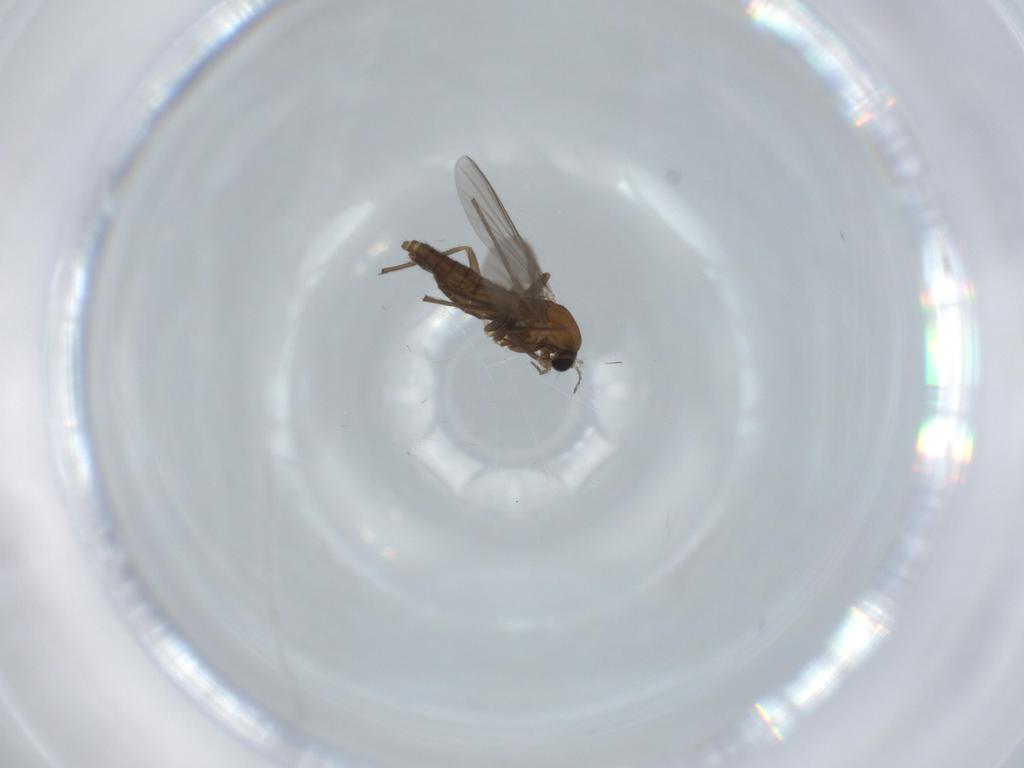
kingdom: Animalia
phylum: Arthropoda
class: Insecta
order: Diptera
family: Chironomidae
